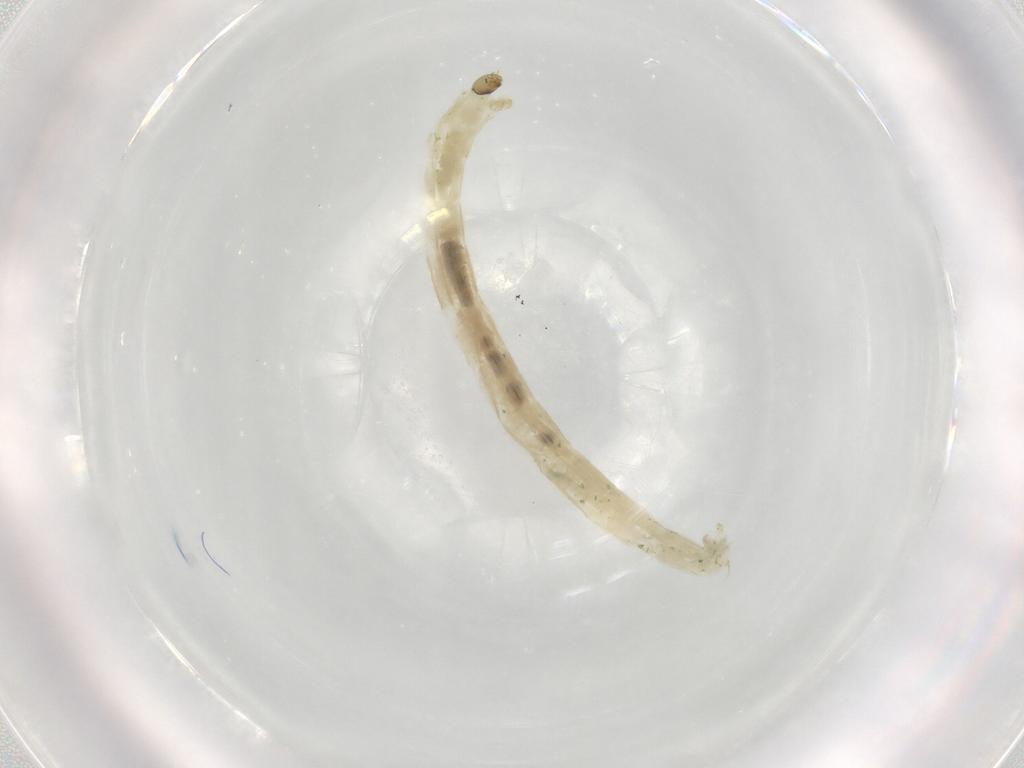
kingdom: Animalia
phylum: Arthropoda
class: Insecta
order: Diptera
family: Chironomidae
